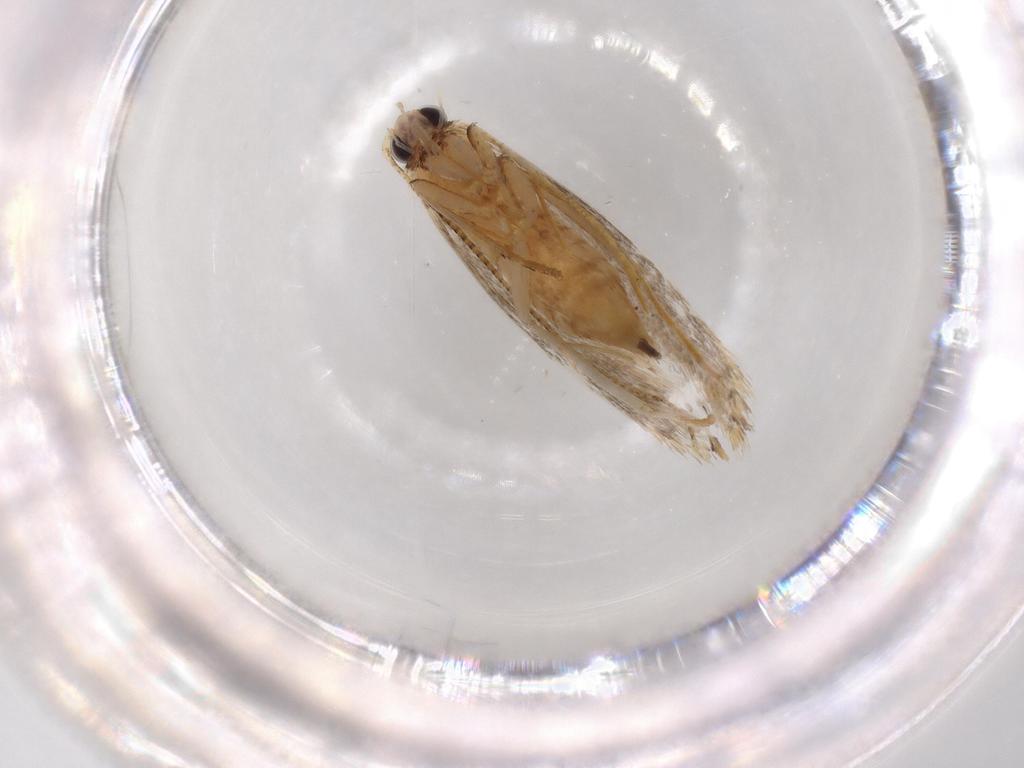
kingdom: Animalia
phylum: Arthropoda
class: Insecta
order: Lepidoptera
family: Tineidae
